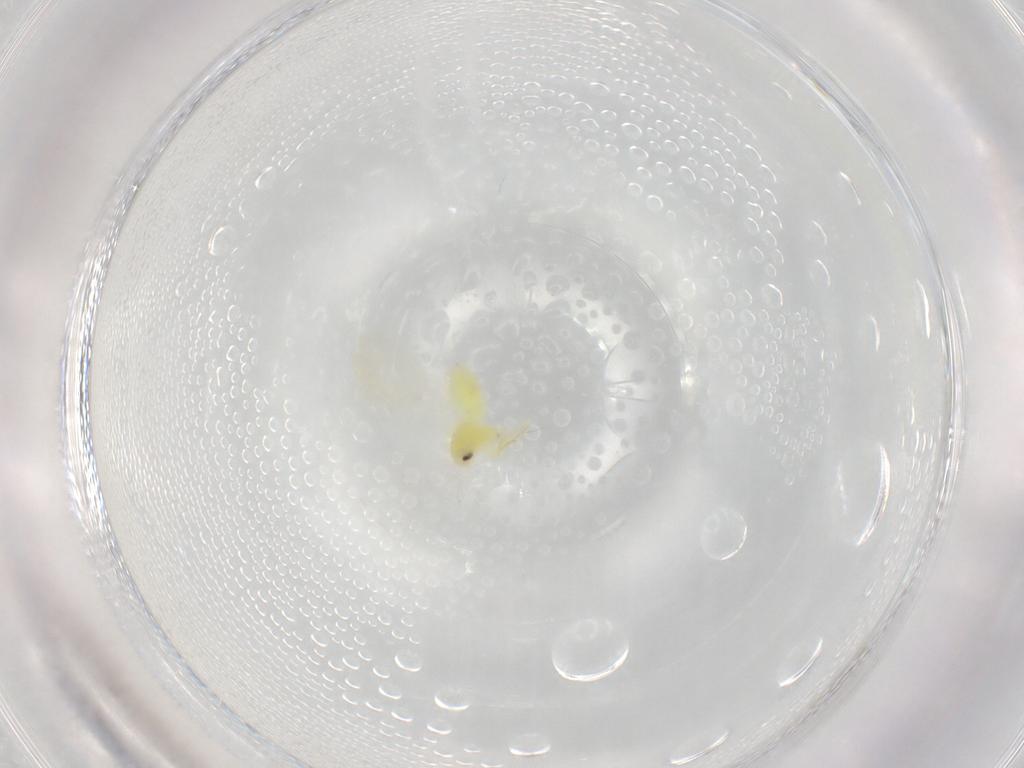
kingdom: Animalia
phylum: Arthropoda
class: Insecta
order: Hemiptera
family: Aleyrodidae
